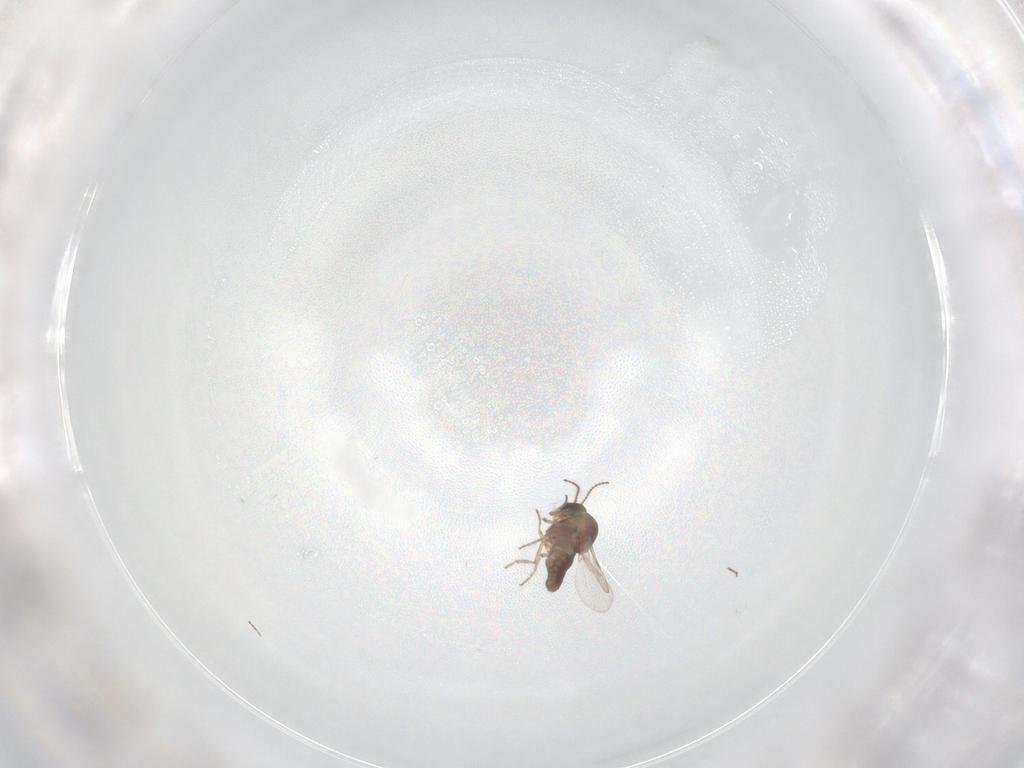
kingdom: Animalia
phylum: Arthropoda
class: Insecta
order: Diptera
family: Ceratopogonidae
